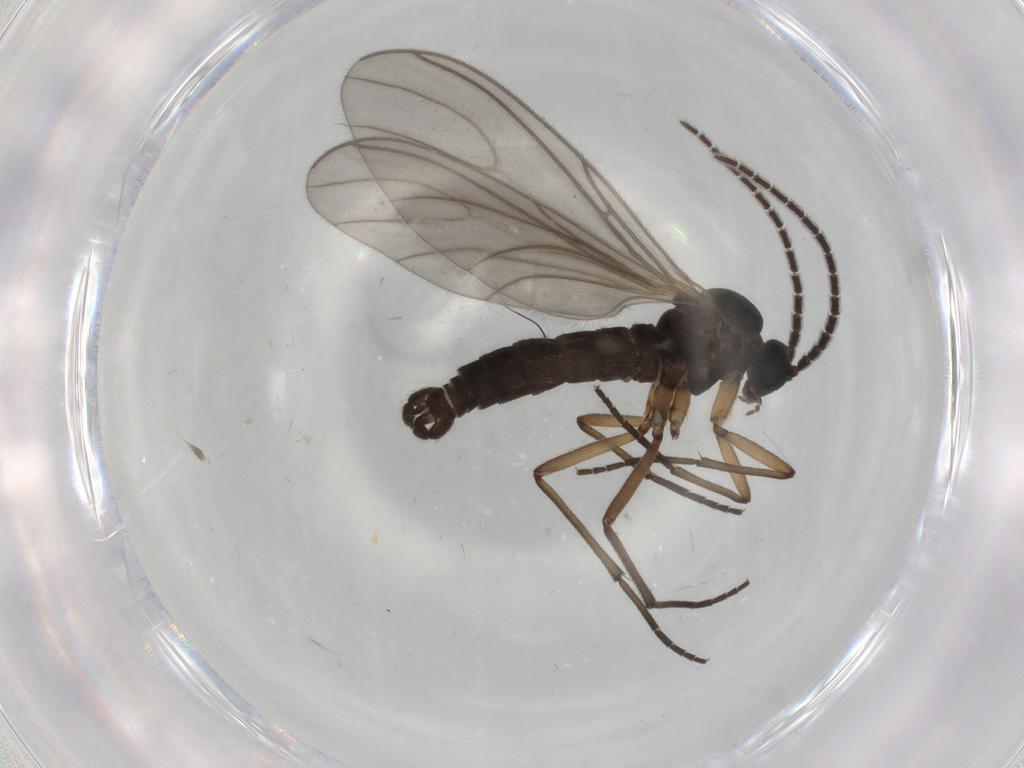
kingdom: Animalia
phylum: Arthropoda
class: Insecta
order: Diptera
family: Sciaridae
